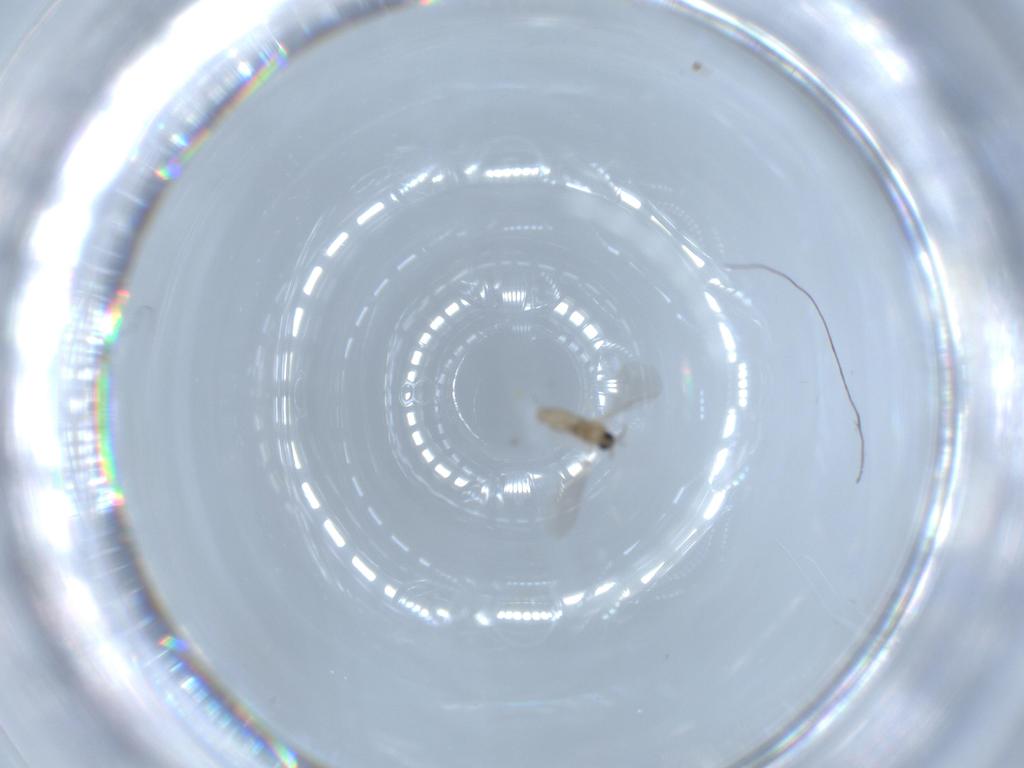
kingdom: Animalia
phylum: Arthropoda
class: Insecta
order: Diptera
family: Cecidomyiidae
